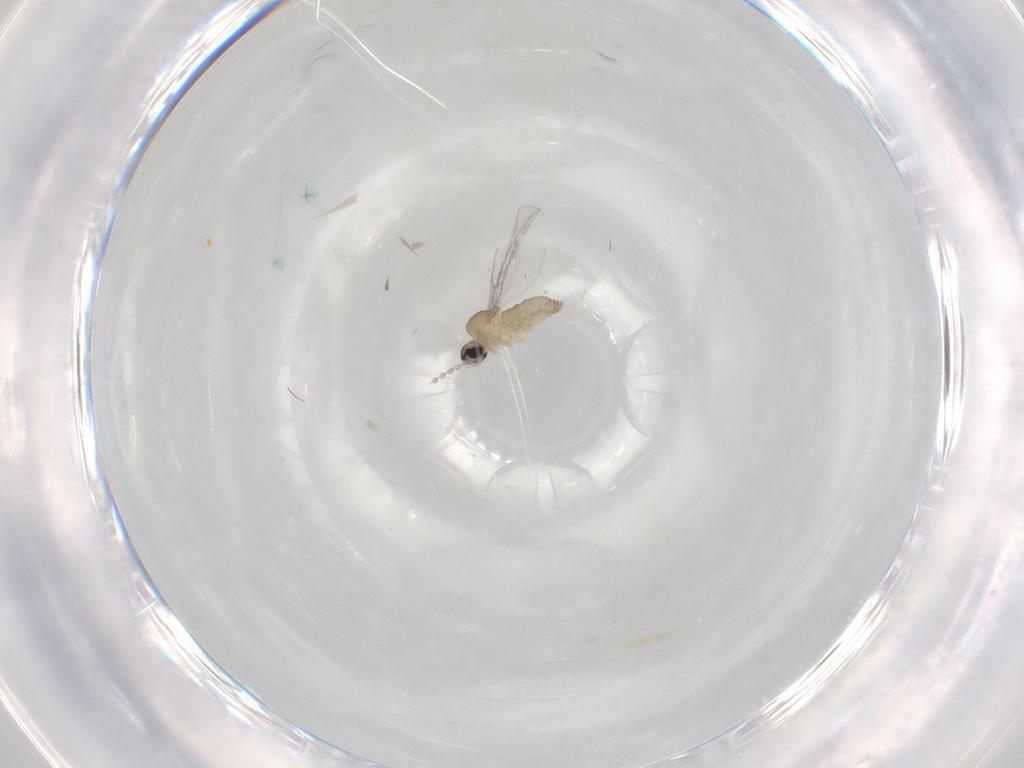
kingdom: Animalia
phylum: Arthropoda
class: Insecta
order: Diptera
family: Cecidomyiidae
